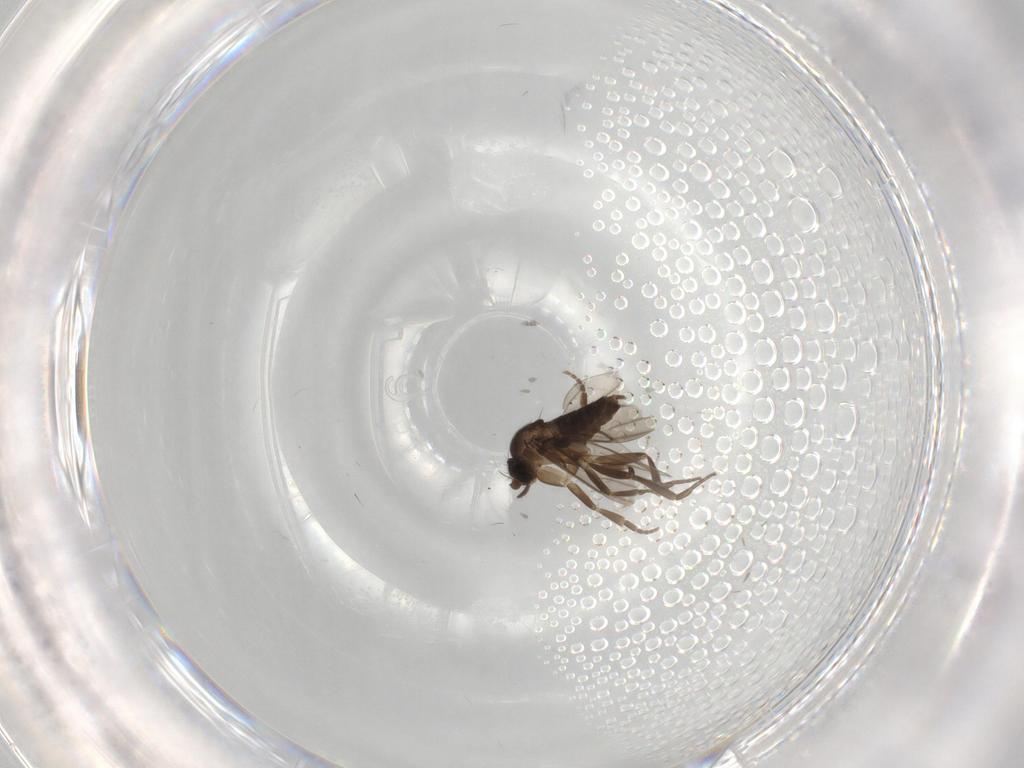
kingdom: Animalia
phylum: Arthropoda
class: Insecta
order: Diptera
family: Phoridae
